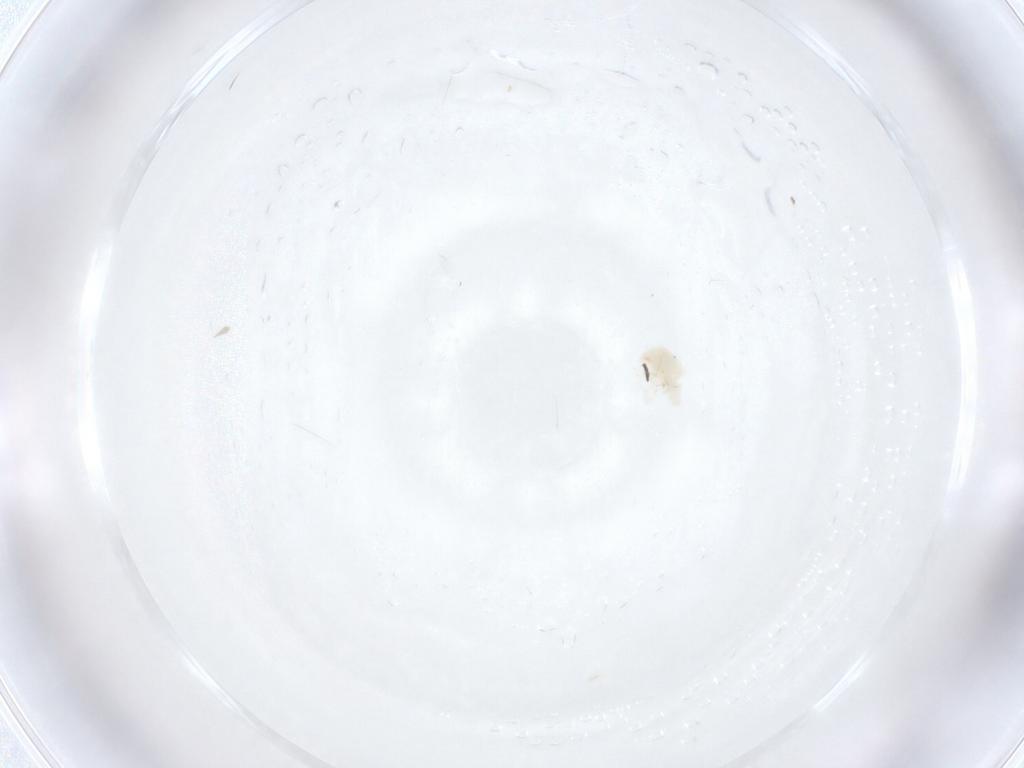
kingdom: Animalia
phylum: Arthropoda
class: Arachnida
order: Trombidiformes
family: Anystidae
